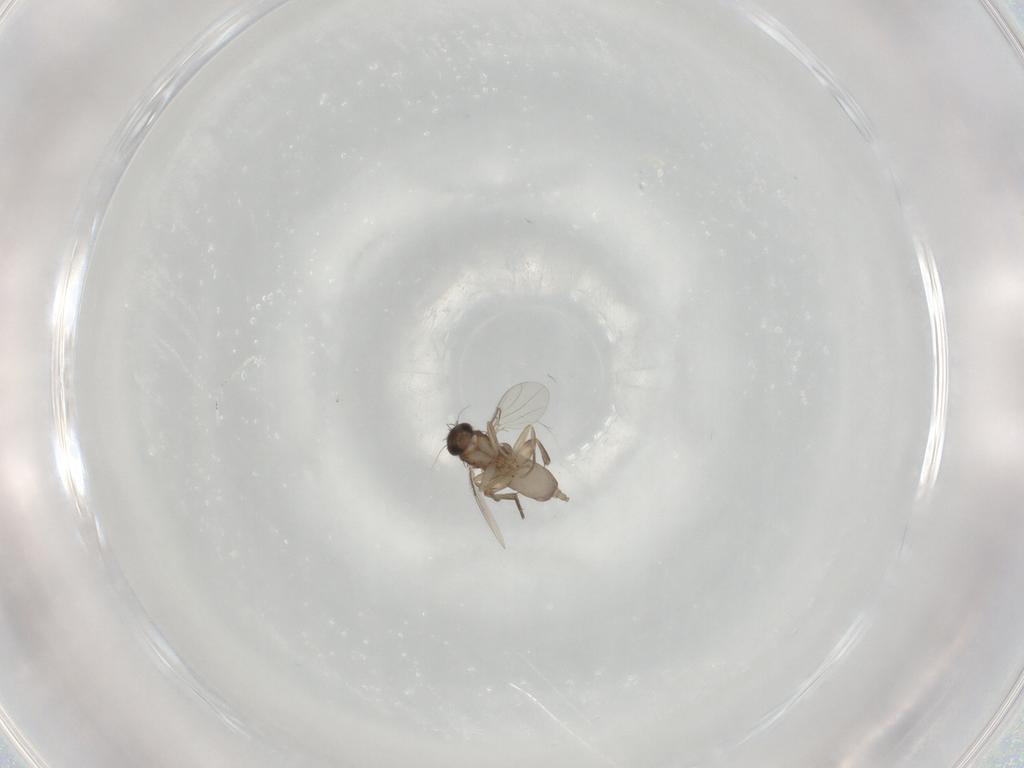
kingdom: Animalia
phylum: Arthropoda
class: Insecta
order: Diptera
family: Phoridae
